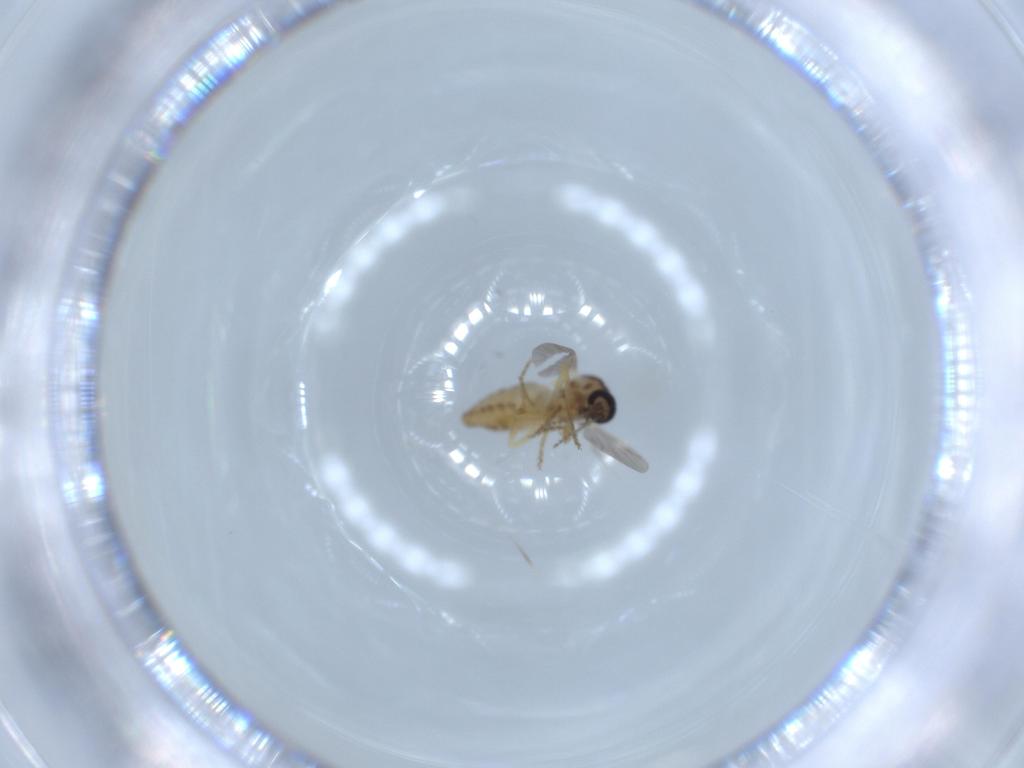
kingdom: Animalia
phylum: Arthropoda
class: Insecta
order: Diptera
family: Ceratopogonidae
